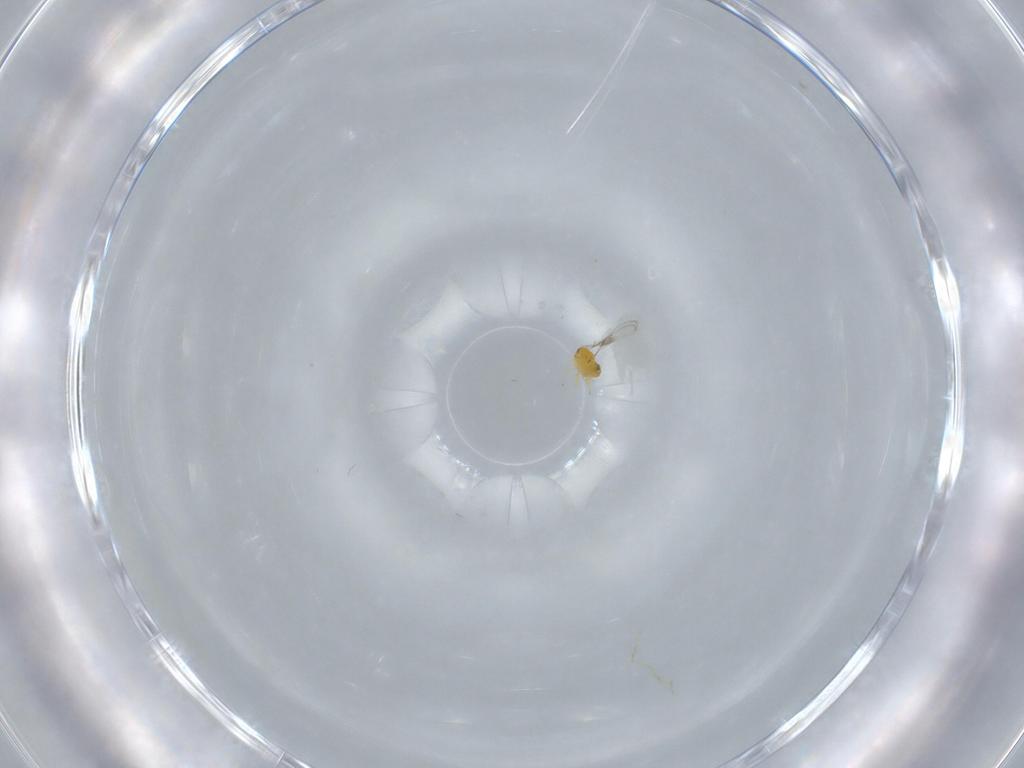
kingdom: Animalia
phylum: Arthropoda
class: Insecta
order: Hymenoptera
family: Trichogrammatidae
